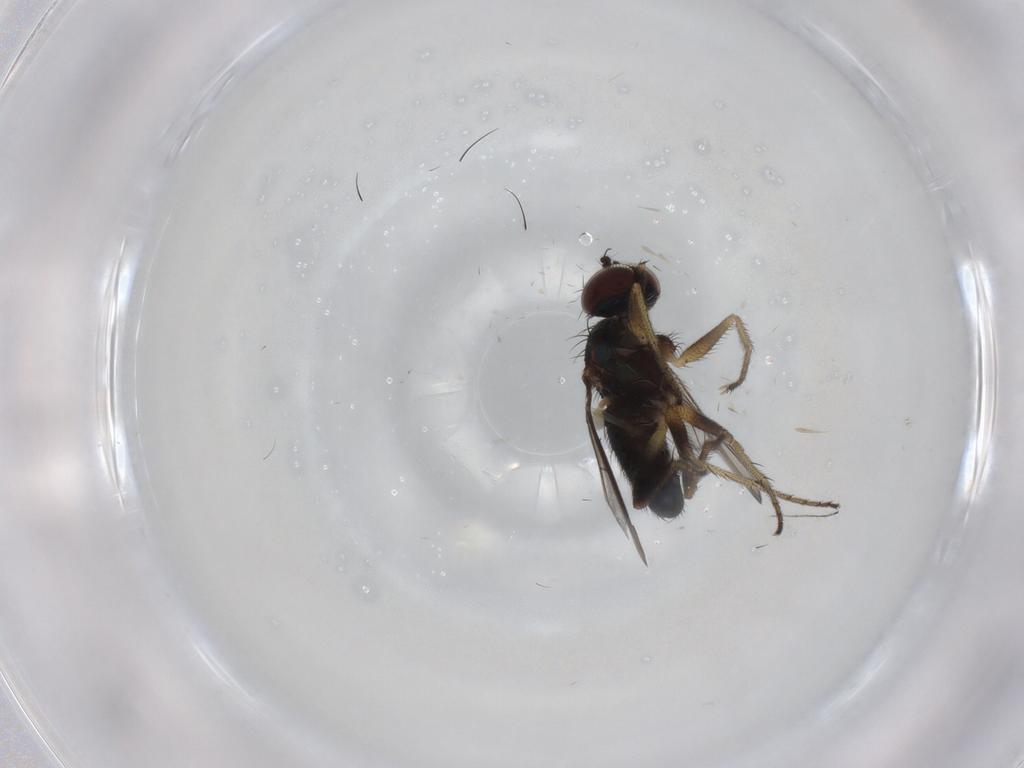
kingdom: Animalia
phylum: Arthropoda
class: Insecta
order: Diptera
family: Dolichopodidae
